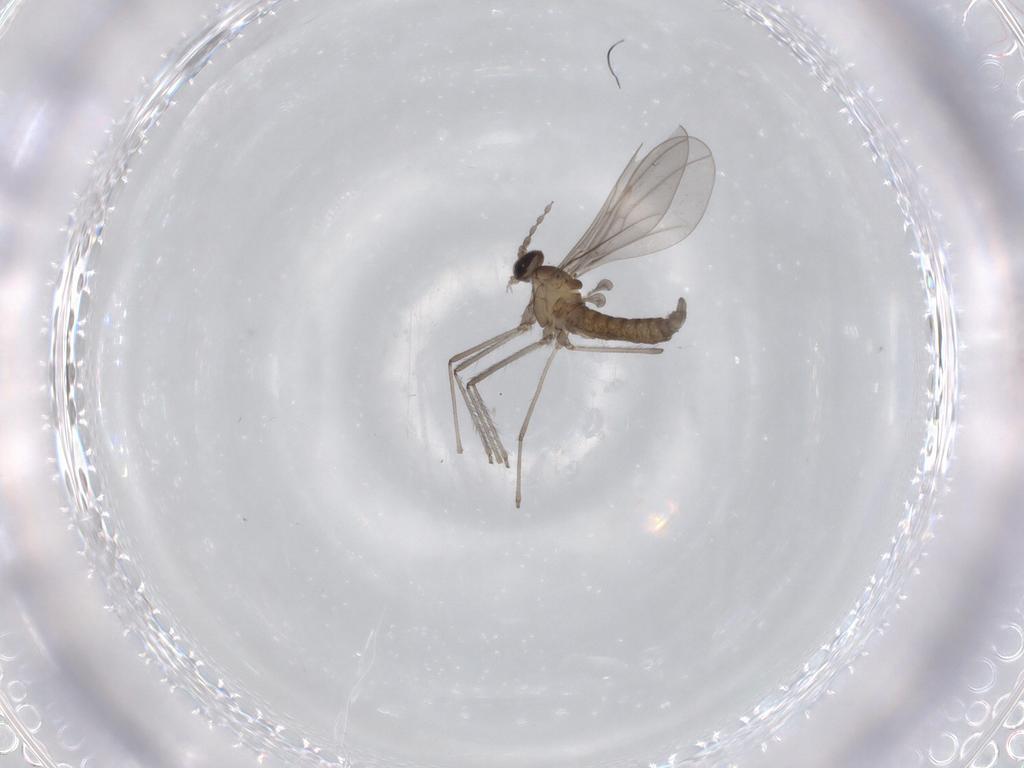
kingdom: Animalia
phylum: Arthropoda
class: Insecta
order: Diptera
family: Cecidomyiidae
